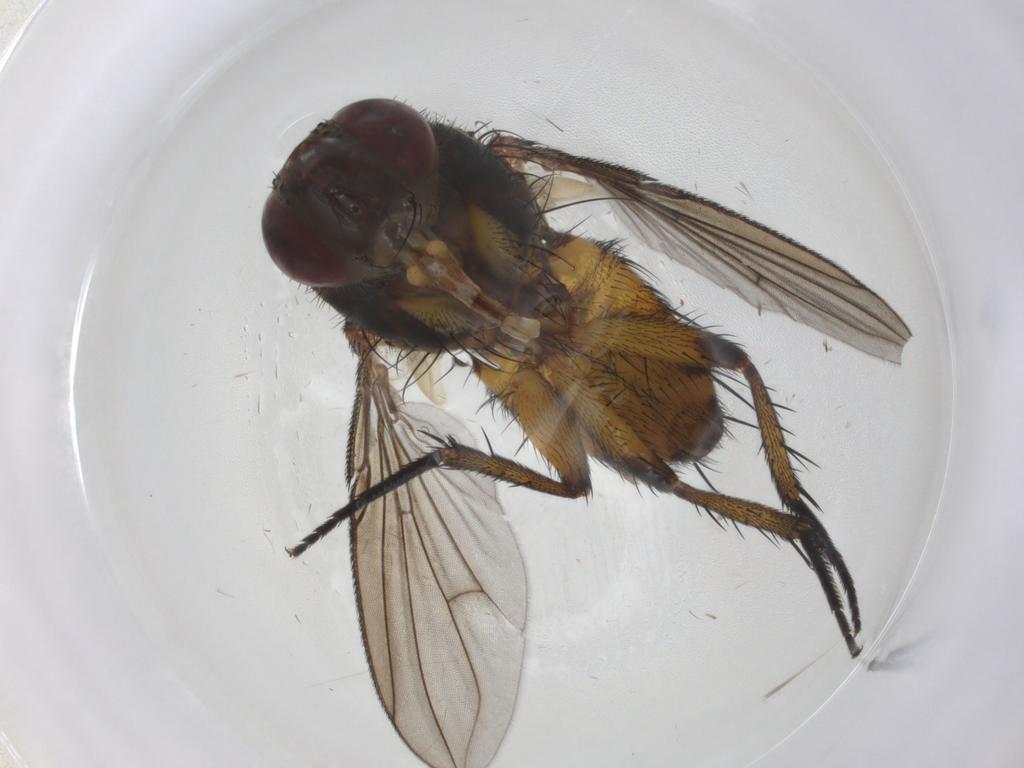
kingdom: Animalia
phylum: Arthropoda
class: Insecta
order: Diptera
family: Tachinidae
